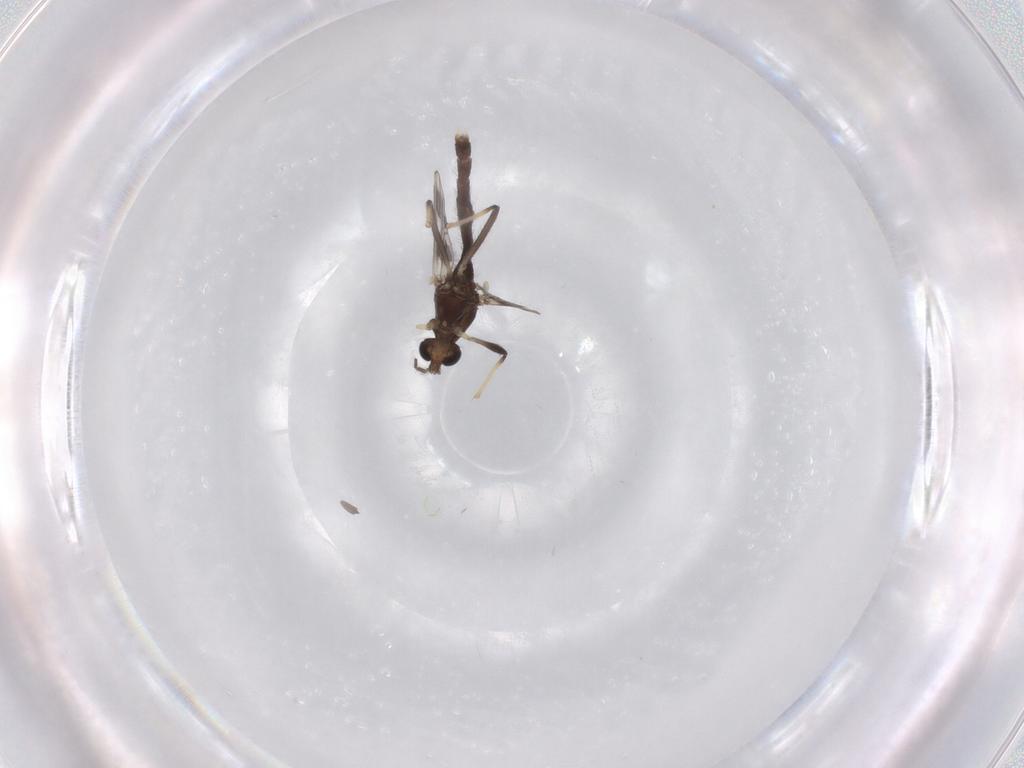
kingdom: Animalia
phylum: Arthropoda
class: Insecta
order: Diptera
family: Chironomidae
